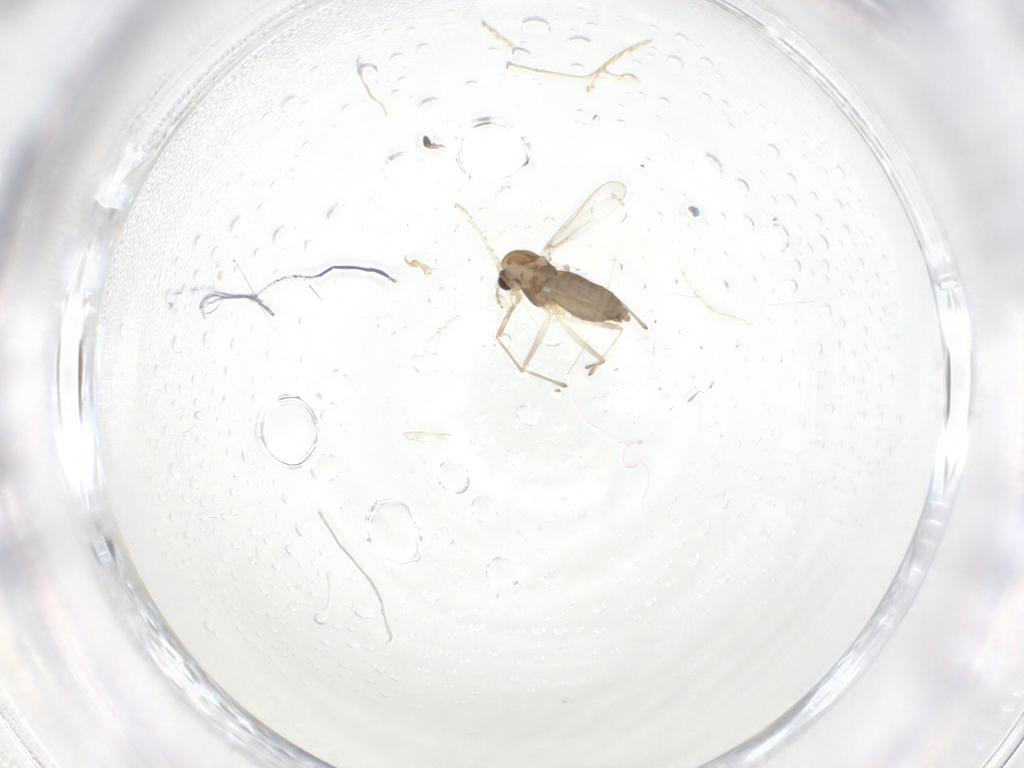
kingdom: Animalia
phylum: Arthropoda
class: Insecta
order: Diptera
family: Chironomidae
